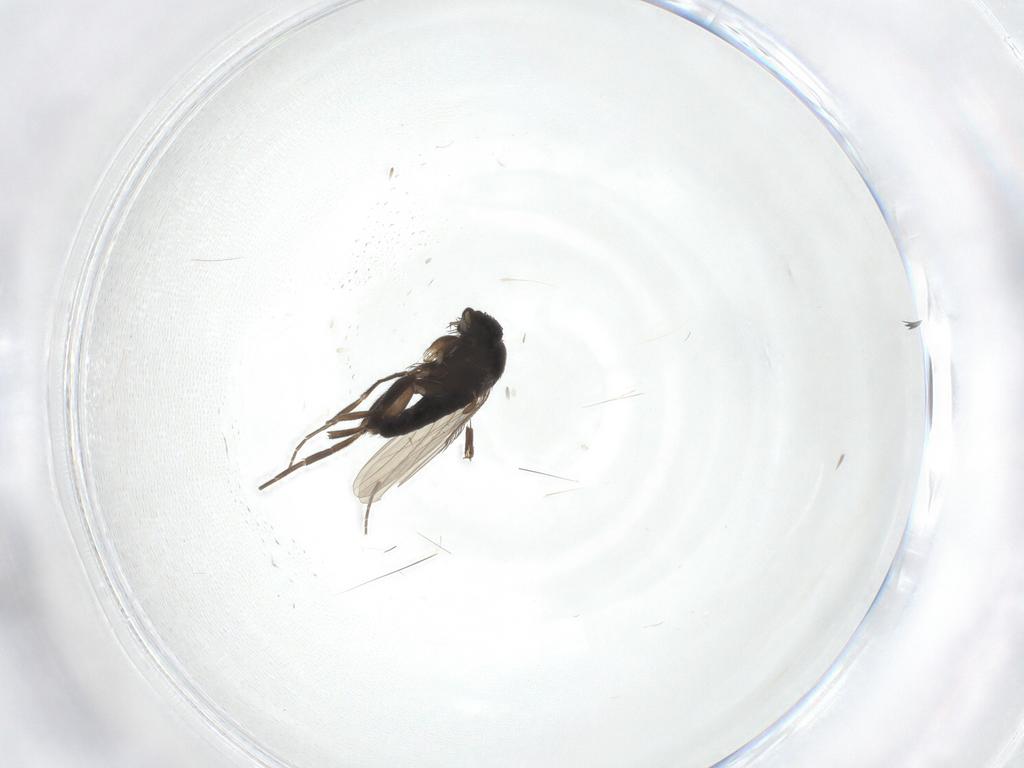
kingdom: Animalia
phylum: Arthropoda
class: Insecta
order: Diptera
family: Phoridae
